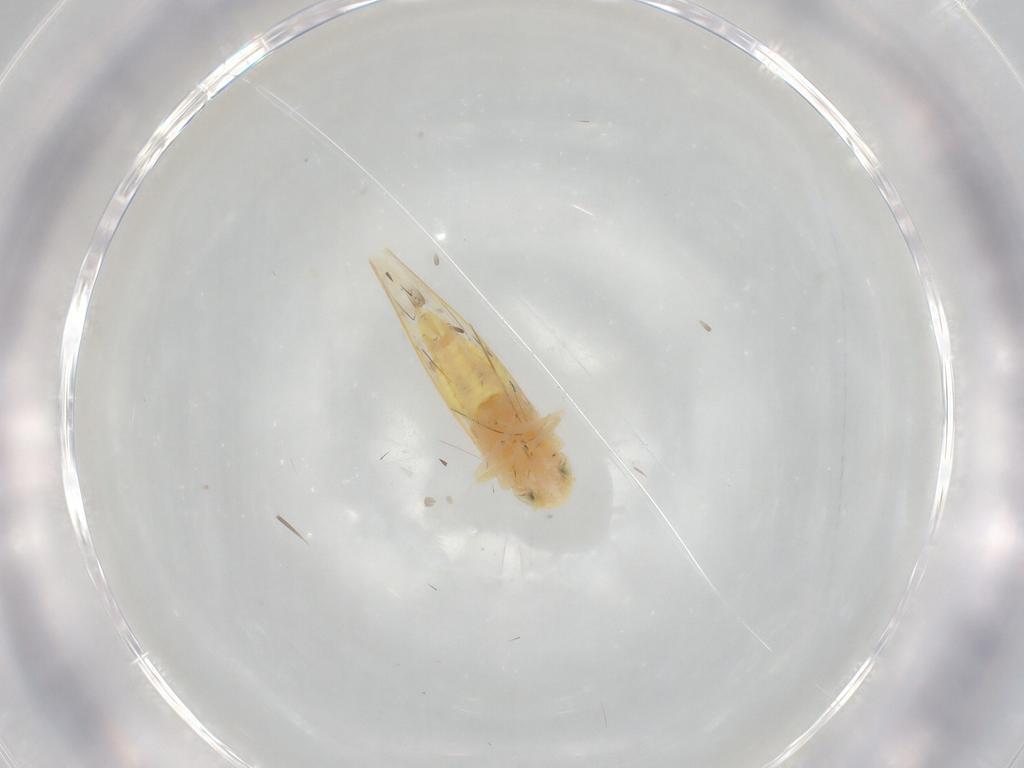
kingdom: Animalia
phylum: Arthropoda
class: Insecta
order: Hemiptera
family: Cicadellidae
